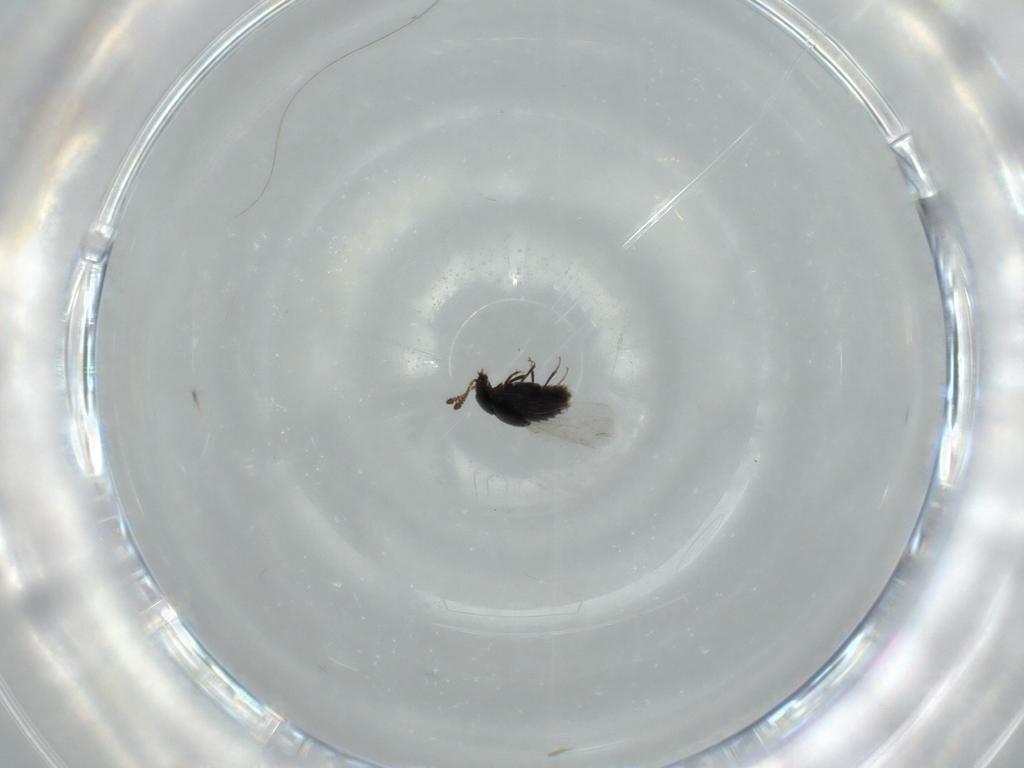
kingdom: Animalia
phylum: Arthropoda
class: Insecta
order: Coleoptera
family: Staphylinidae
